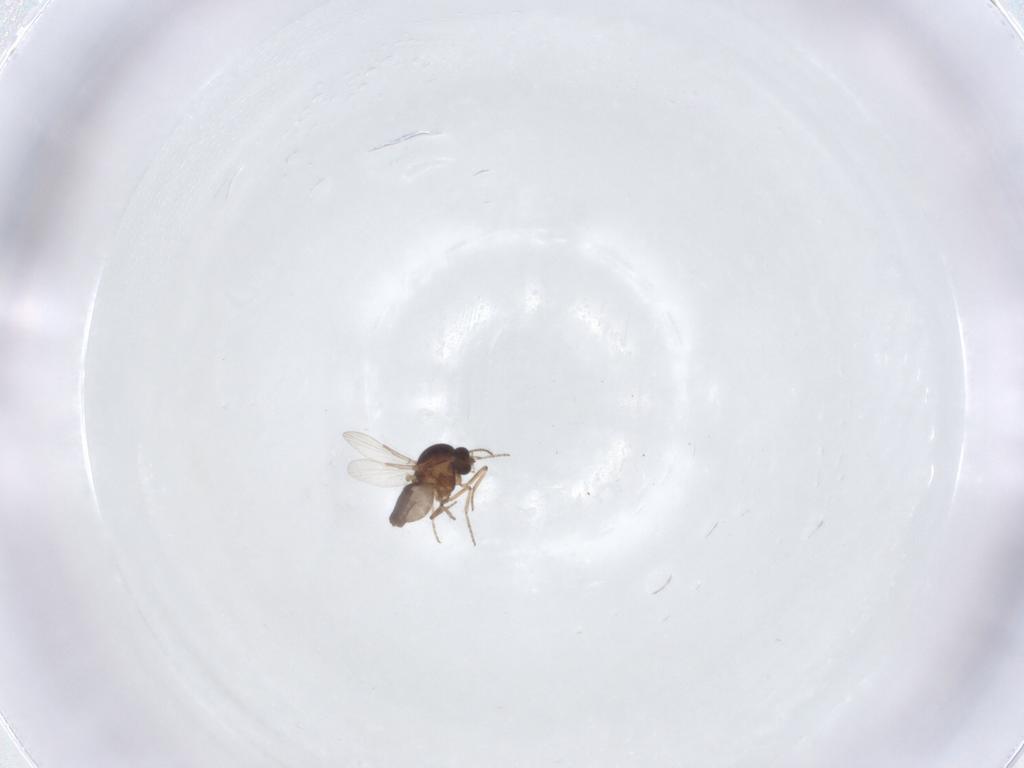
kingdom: Animalia
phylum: Arthropoda
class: Insecta
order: Diptera
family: Ceratopogonidae
